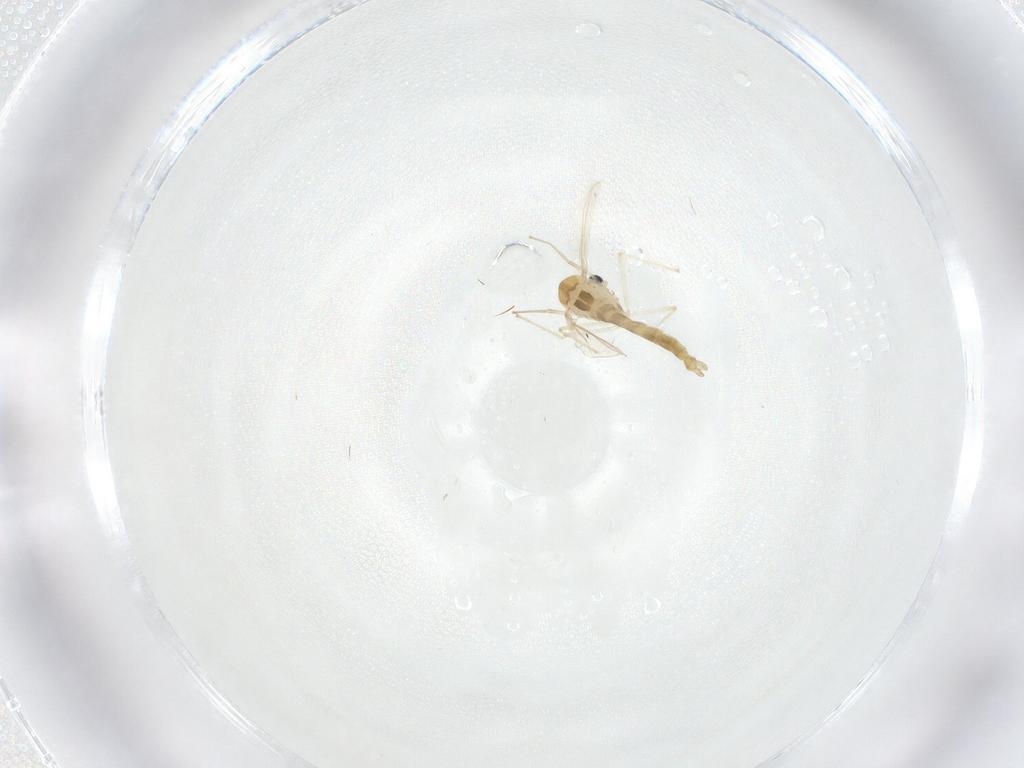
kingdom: Animalia
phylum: Arthropoda
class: Insecta
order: Diptera
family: Chironomidae
